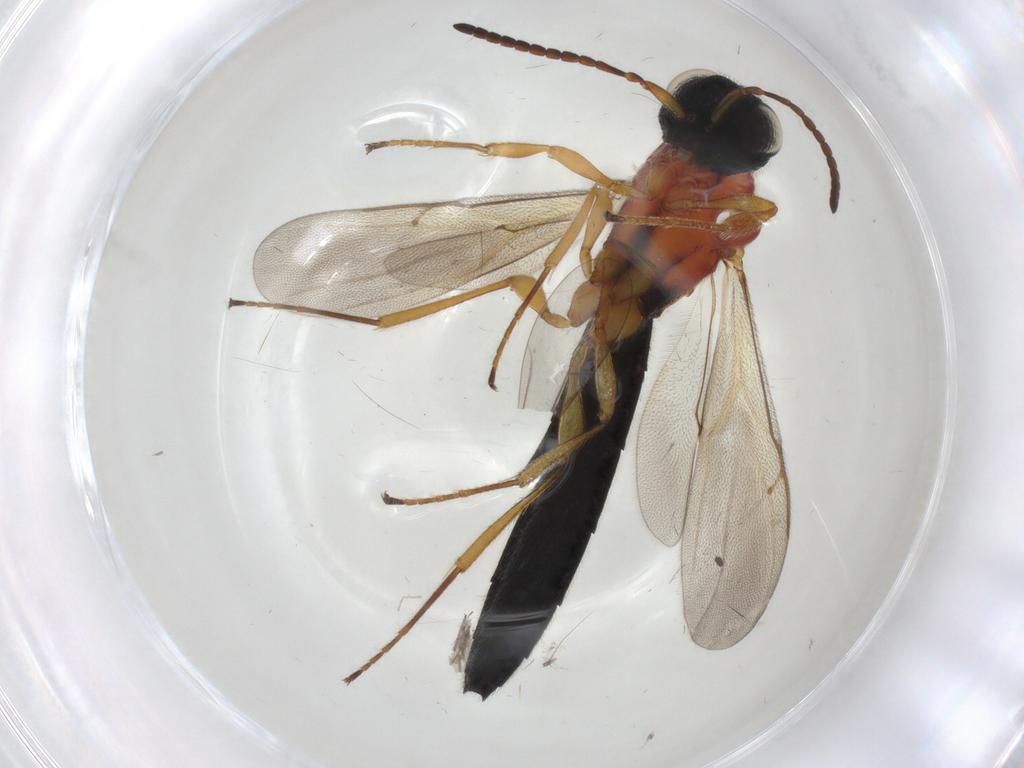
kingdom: Animalia
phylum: Arthropoda
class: Insecta
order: Hymenoptera
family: Scelionidae
